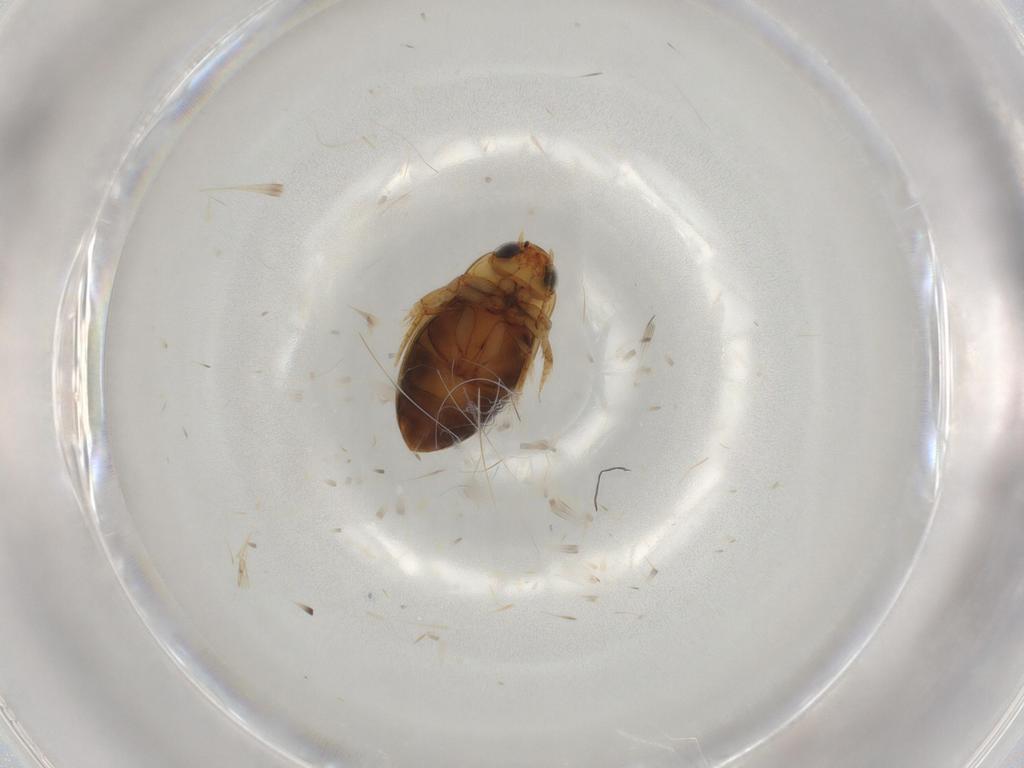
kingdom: Animalia
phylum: Arthropoda
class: Insecta
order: Coleoptera
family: Dytiscidae
